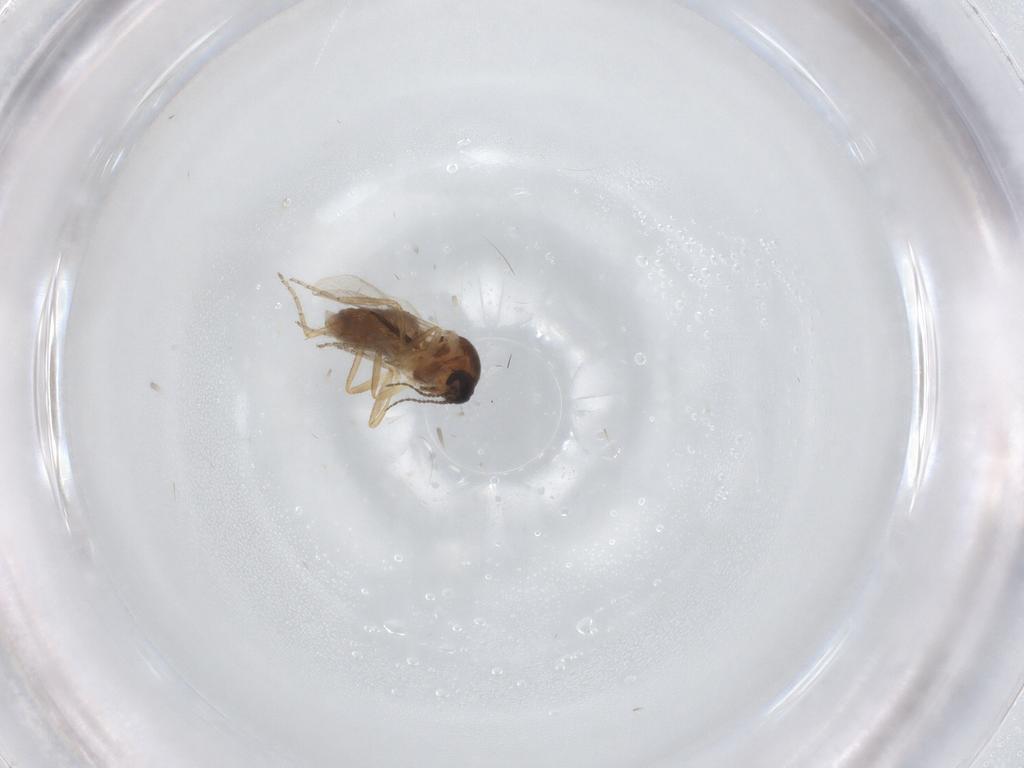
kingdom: Animalia
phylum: Arthropoda
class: Insecta
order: Diptera
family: Ceratopogonidae
